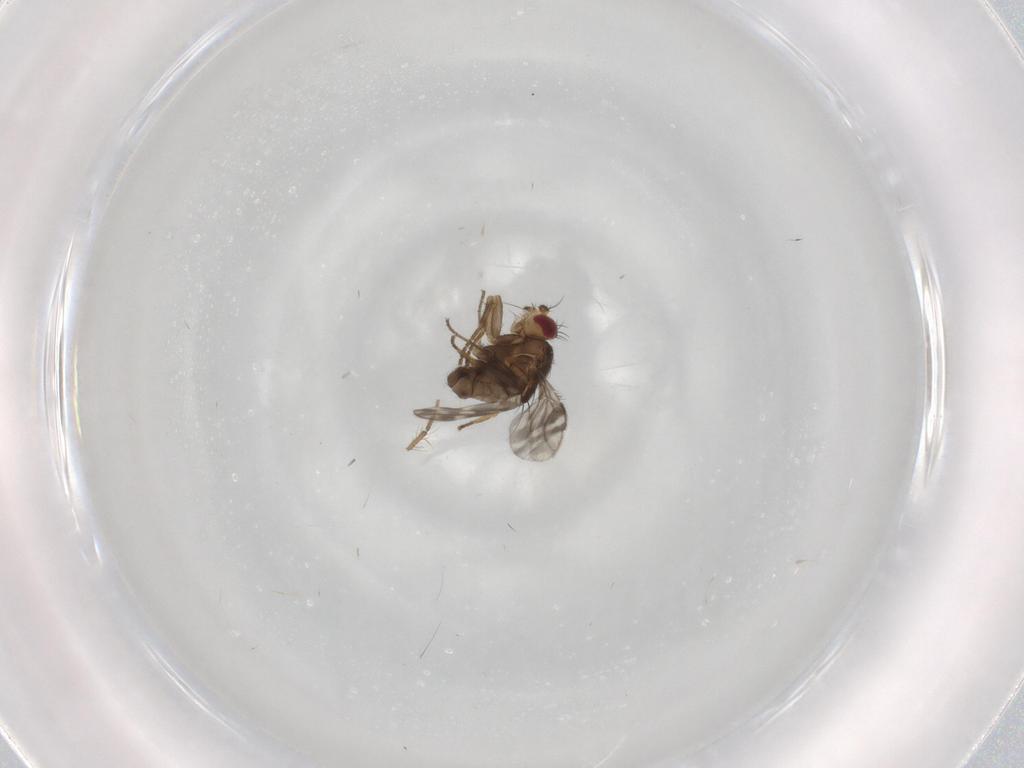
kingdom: Animalia
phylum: Arthropoda
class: Insecta
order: Diptera
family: Sphaeroceridae
